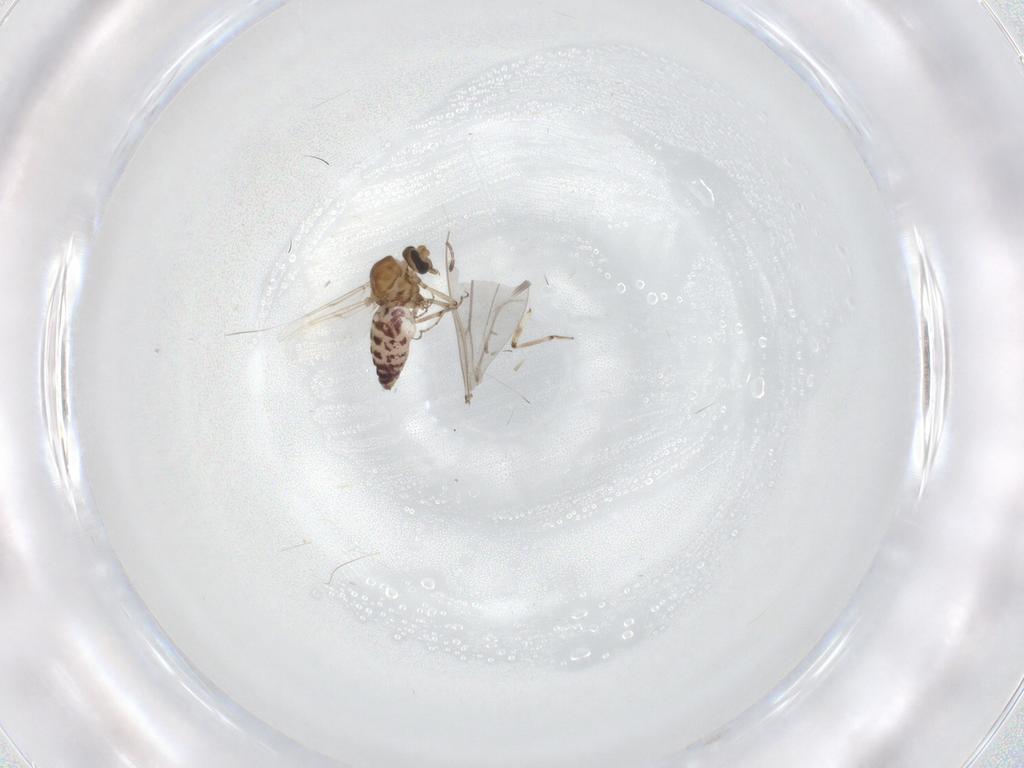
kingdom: Animalia
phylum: Arthropoda
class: Insecta
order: Diptera
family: Ceratopogonidae
